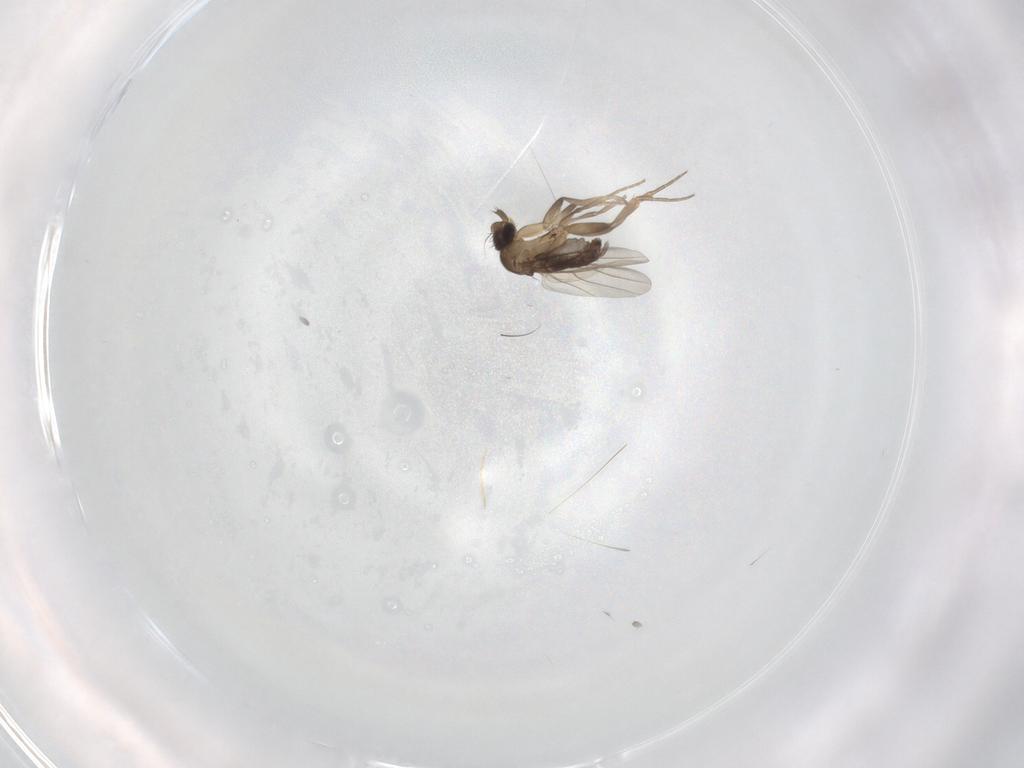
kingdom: Animalia
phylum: Arthropoda
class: Insecta
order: Diptera
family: Phoridae
